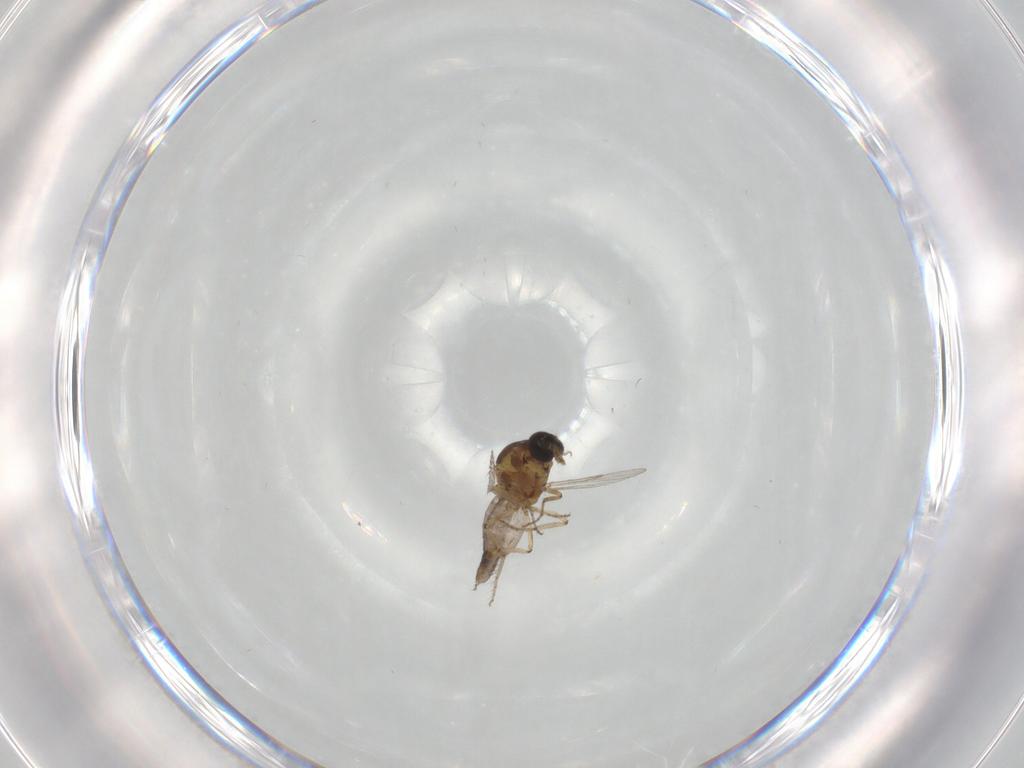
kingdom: Animalia
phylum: Arthropoda
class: Insecta
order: Diptera
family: Ceratopogonidae
